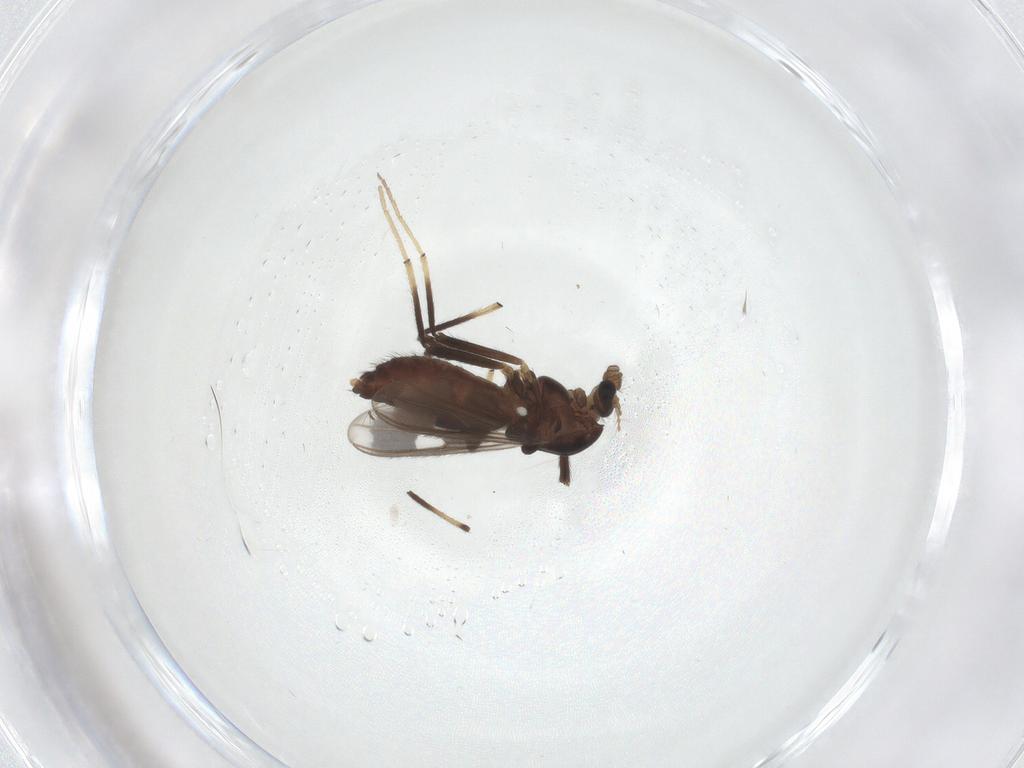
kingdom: Animalia
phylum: Arthropoda
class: Insecta
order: Diptera
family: Chironomidae
